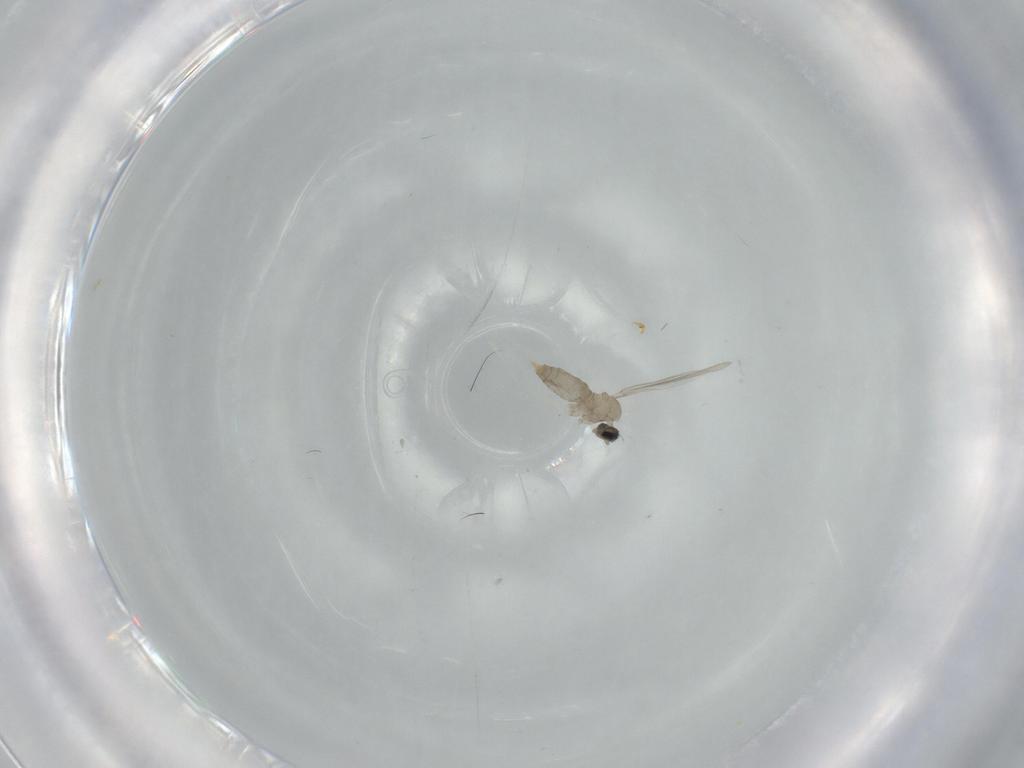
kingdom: Animalia
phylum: Arthropoda
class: Insecta
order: Diptera
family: Cecidomyiidae
